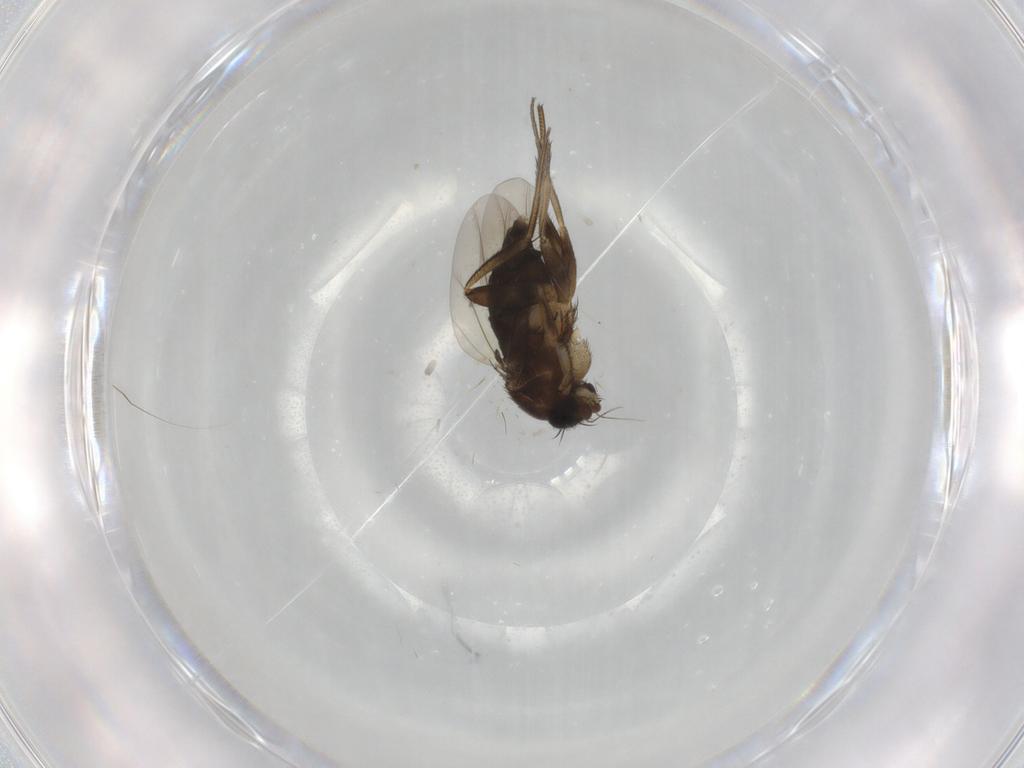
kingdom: Animalia
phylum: Arthropoda
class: Insecta
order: Diptera
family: Phoridae
